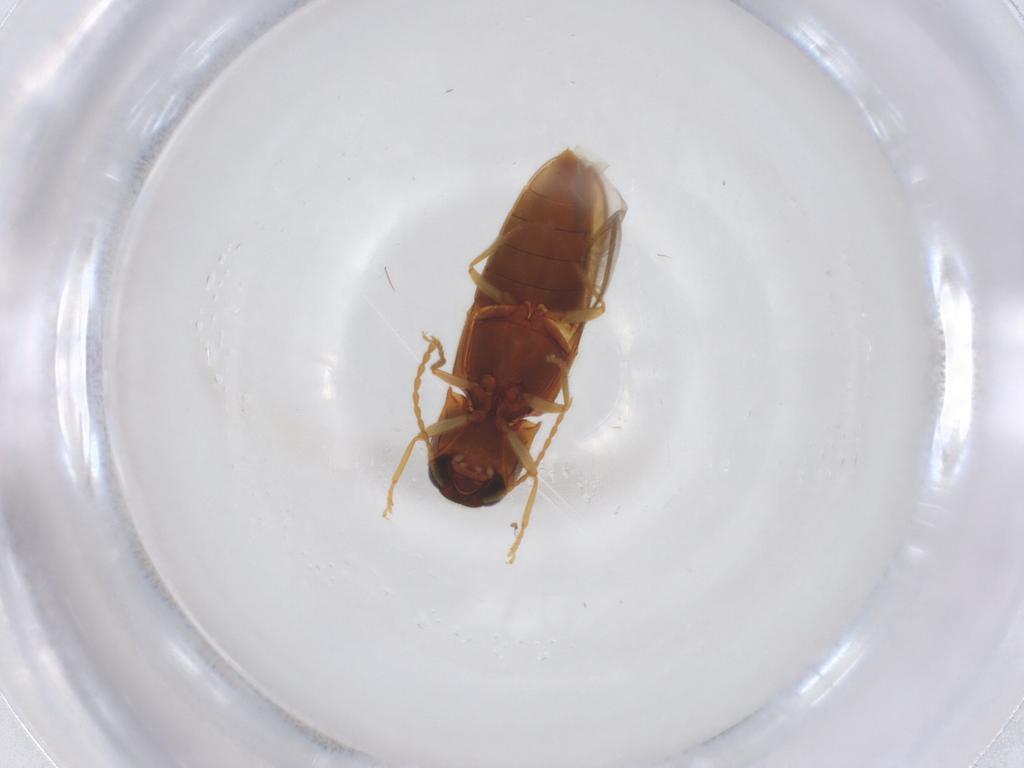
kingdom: Animalia
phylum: Arthropoda
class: Insecta
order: Coleoptera
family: Elateridae
